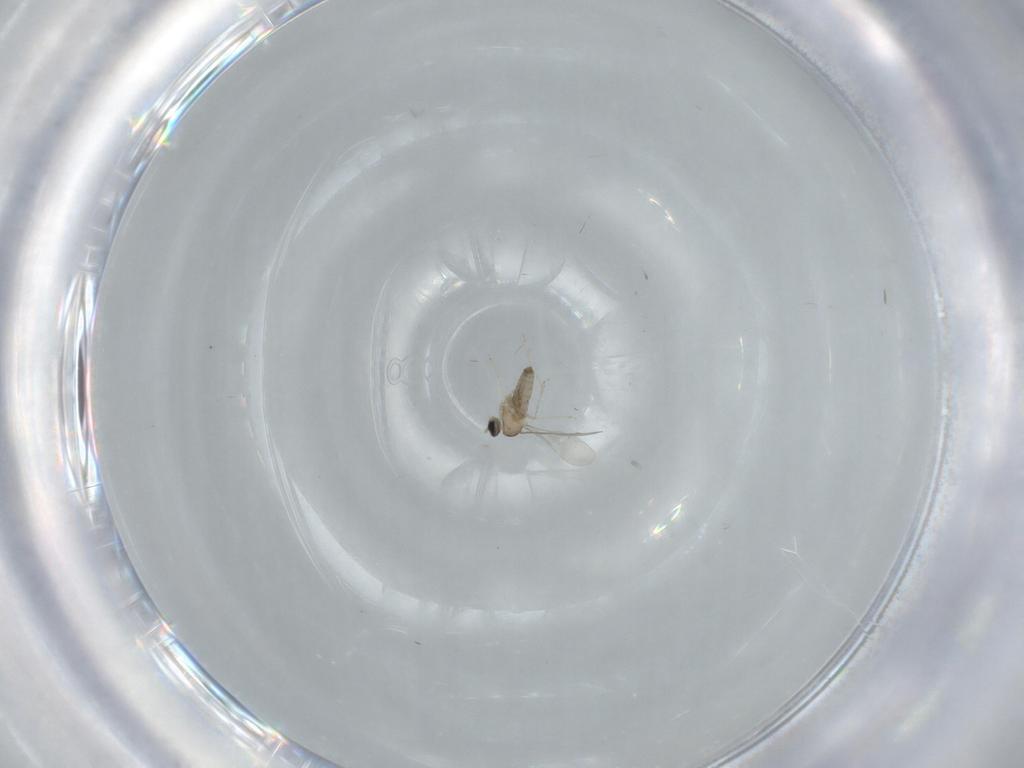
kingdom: Animalia
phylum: Arthropoda
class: Insecta
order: Diptera
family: Cecidomyiidae
